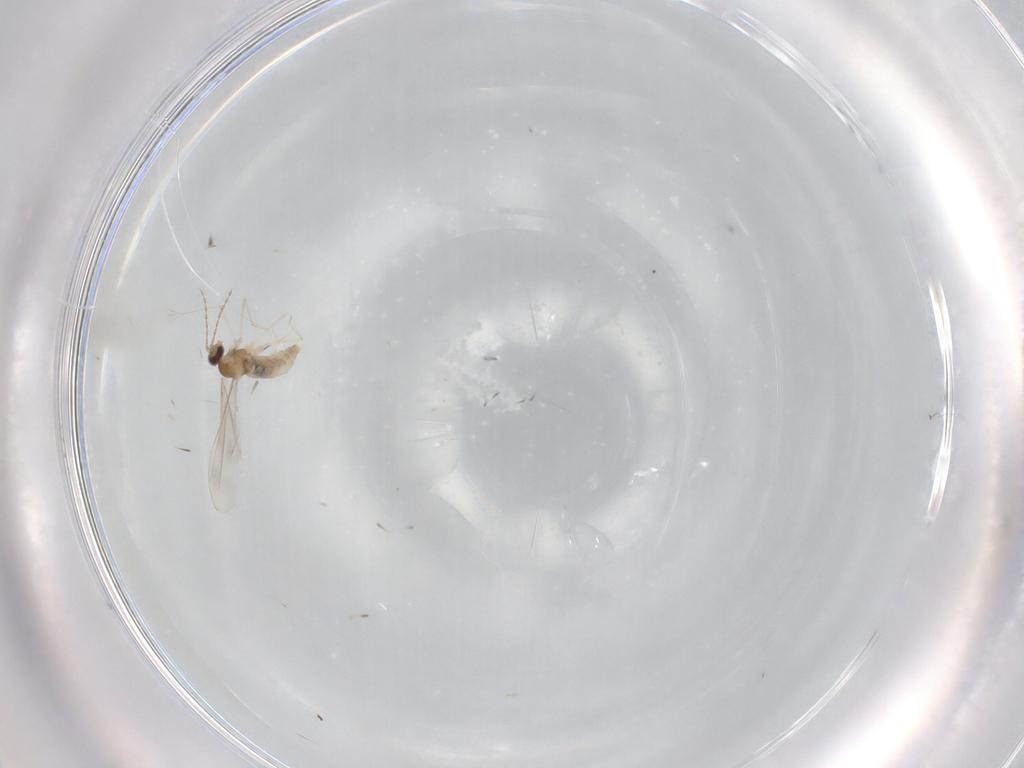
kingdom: Animalia
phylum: Arthropoda
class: Insecta
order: Diptera
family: Cecidomyiidae
